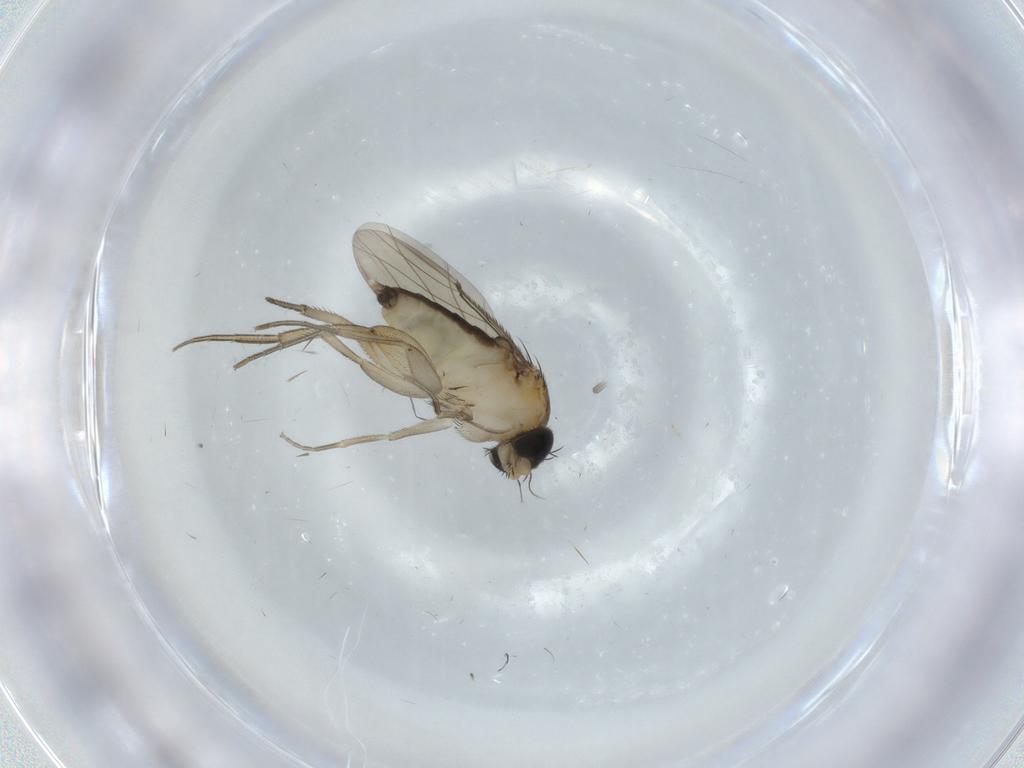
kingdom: Animalia
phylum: Arthropoda
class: Insecta
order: Diptera
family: Phoridae
